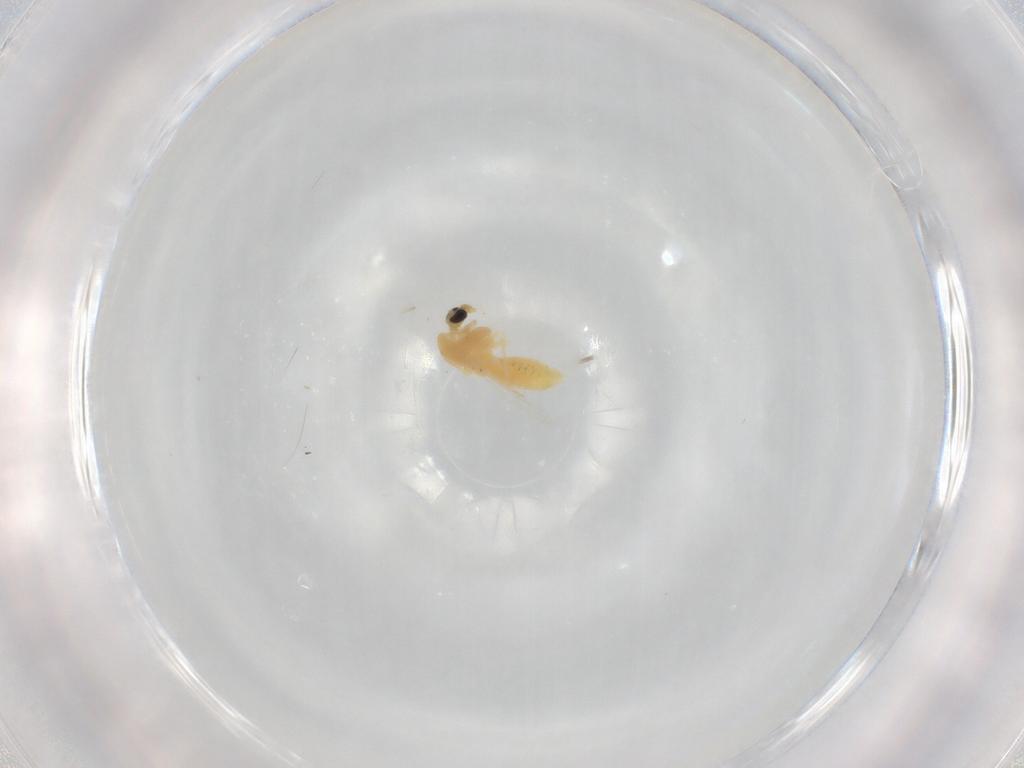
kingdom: Animalia
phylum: Arthropoda
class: Insecta
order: Diptera
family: Chironomidae
